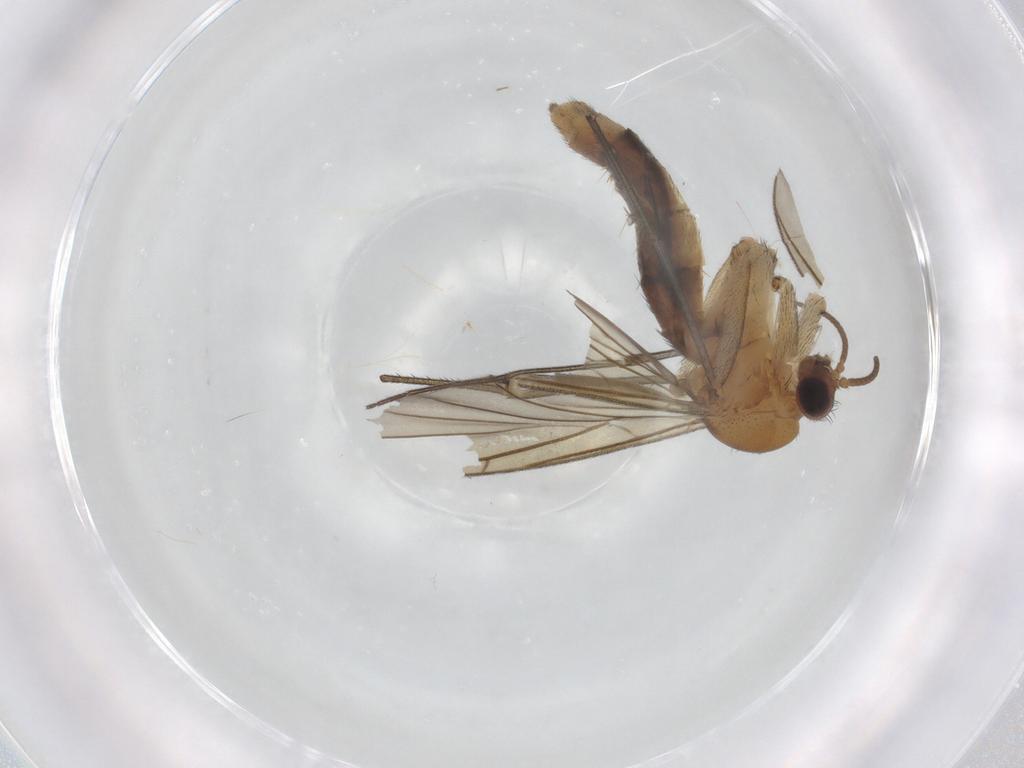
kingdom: Animalia
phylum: Arthropoda
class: Insecta
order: Diptera
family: Keroplatidae
